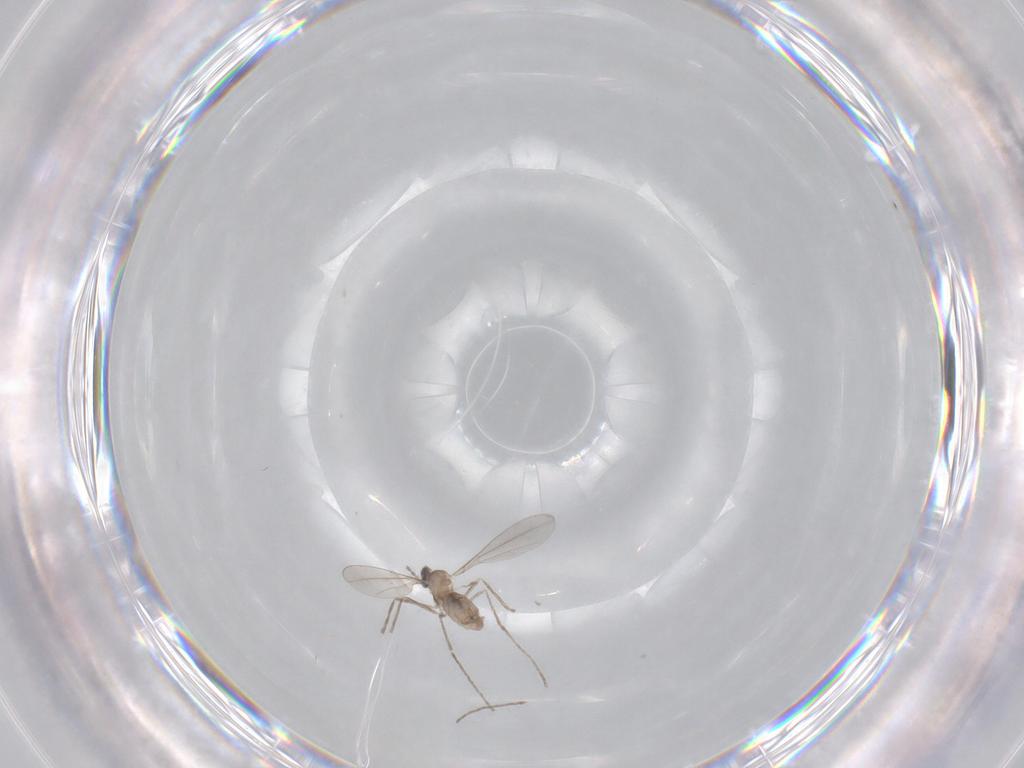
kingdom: Animalia
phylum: Arthropoda
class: Insecta
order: Diptera
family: Cecidomyiidae
